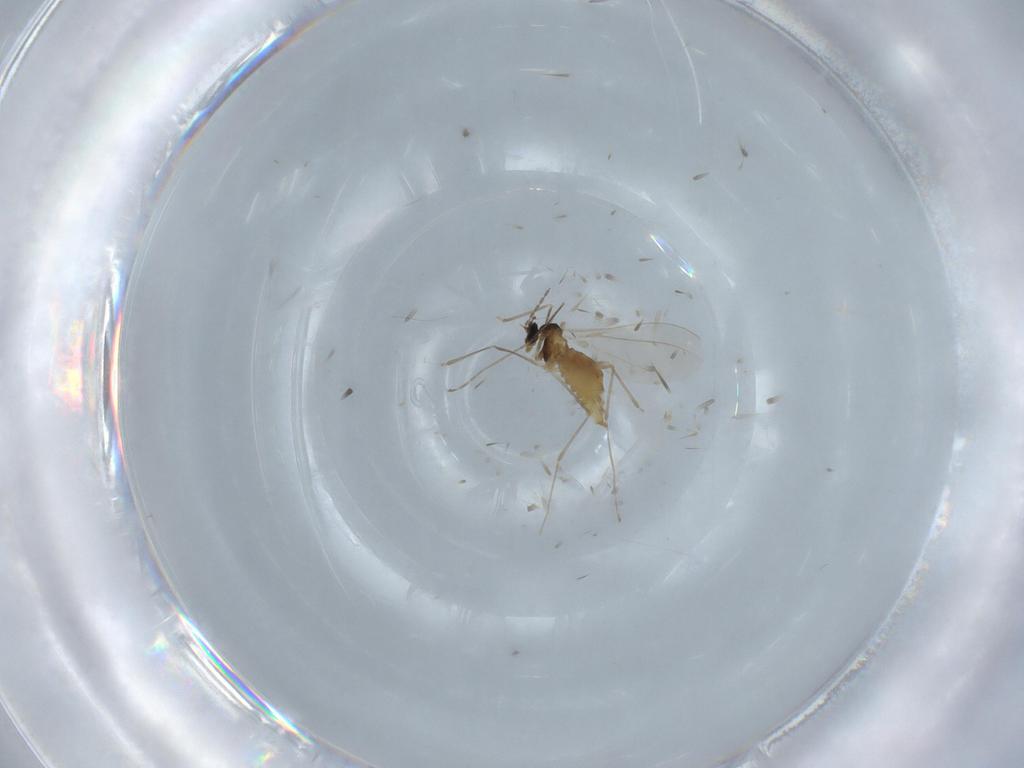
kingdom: Animalia
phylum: Arthropoda
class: Insecta
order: Diptera
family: Cecidomyiidae
